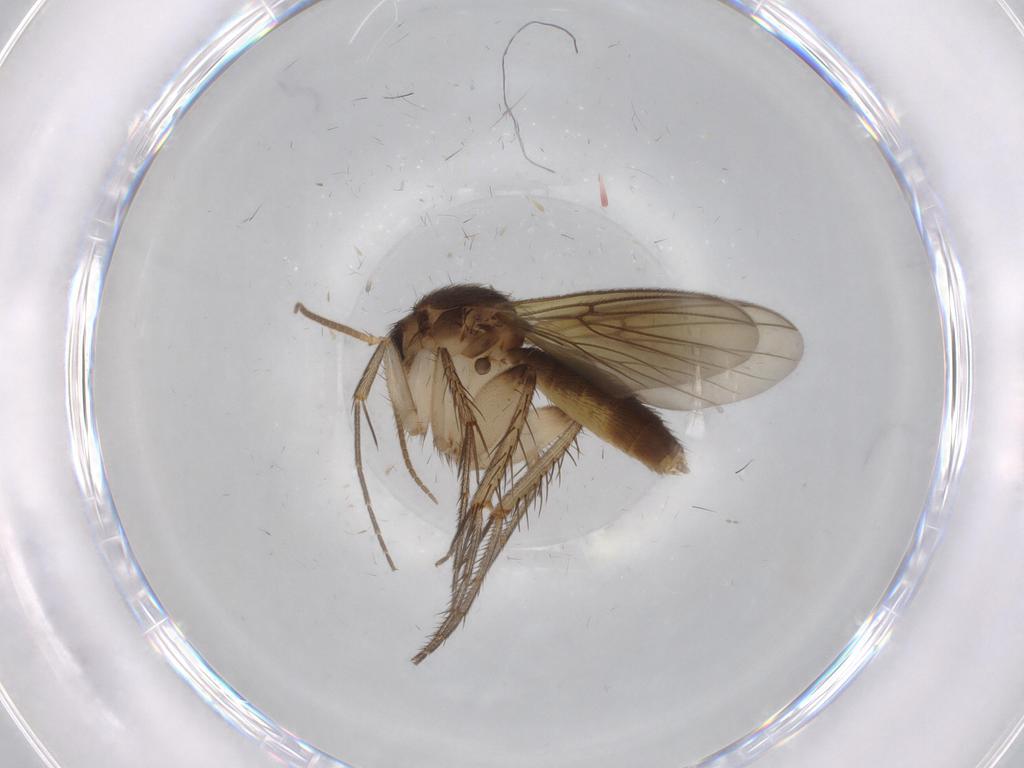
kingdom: Animalia
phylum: Arthropoda
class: Insecta
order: Diptera
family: Mycetophilidae
